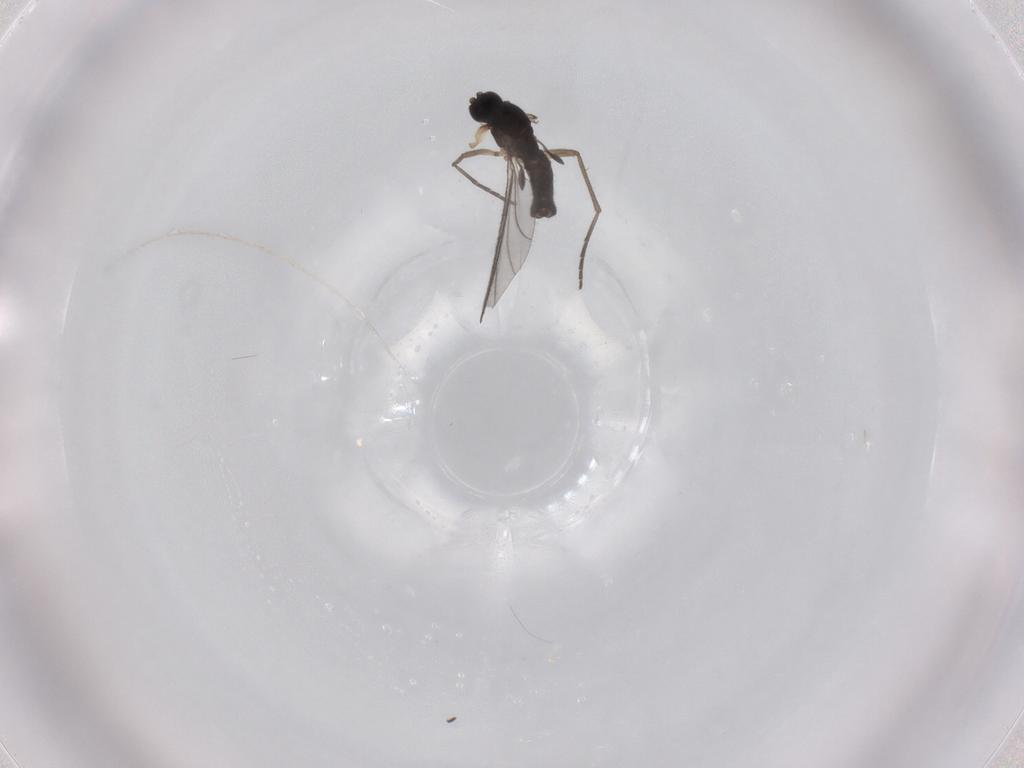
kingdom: Animalia
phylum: Arthropoda
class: Insecta
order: Diptera
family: Sciaridae
